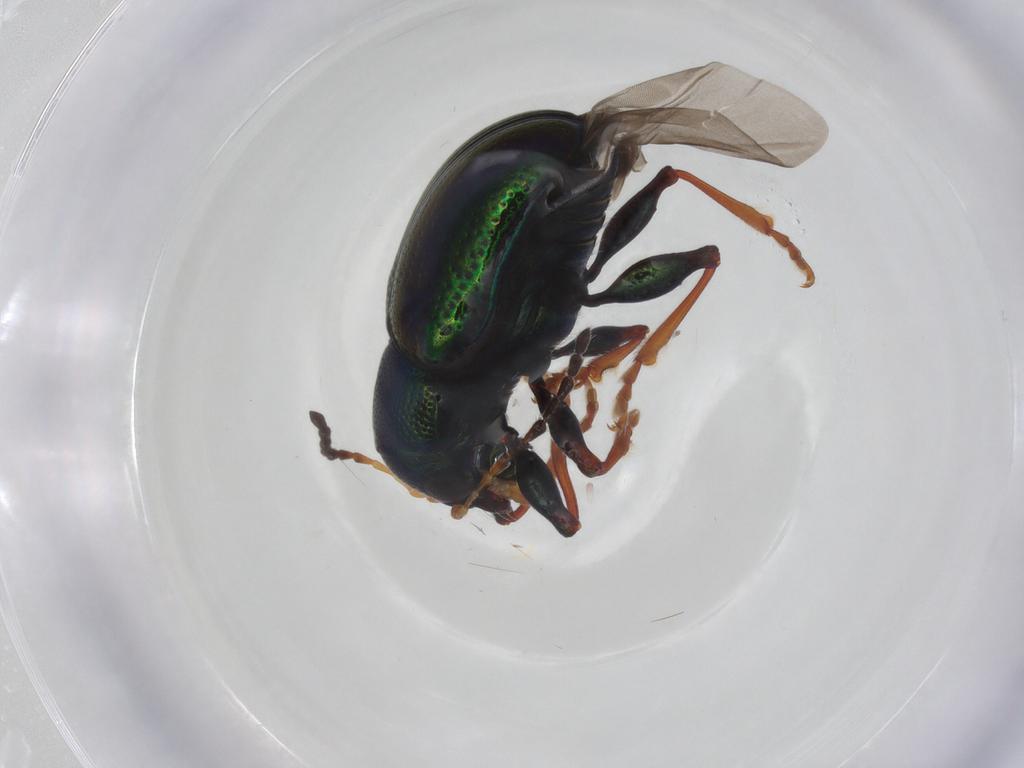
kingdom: Animalia
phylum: Arthropoda
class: Insecta
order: Coleoptera
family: Chrysomelidae
